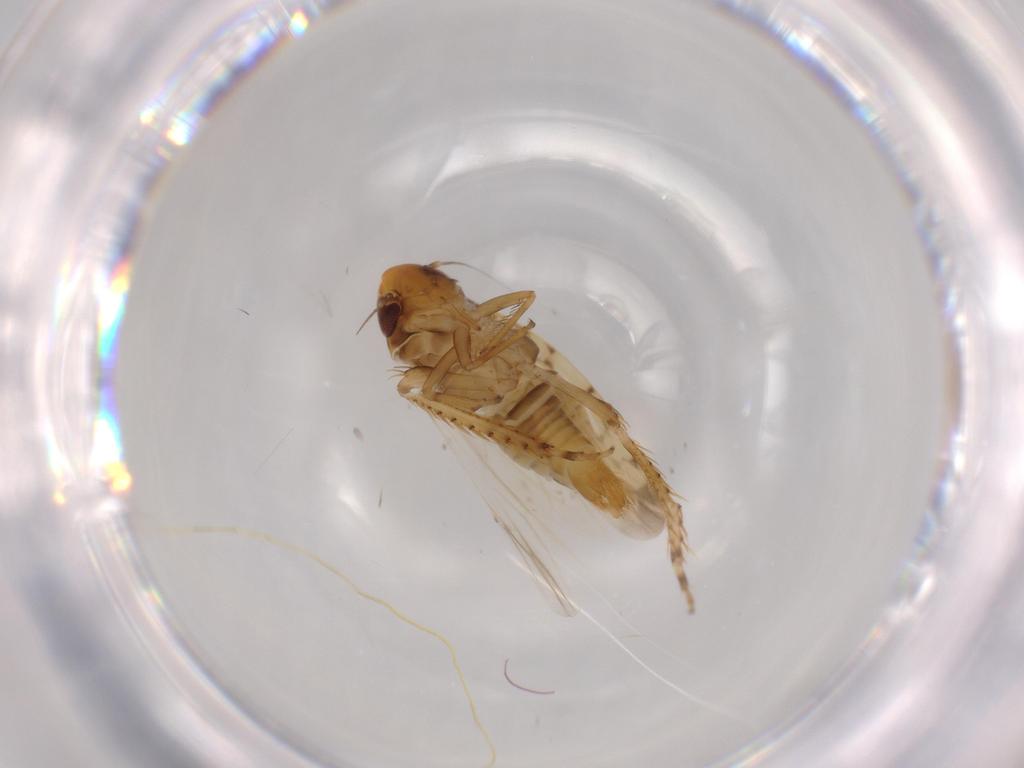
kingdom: Animalia
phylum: Arthropoda
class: Insecta
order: Hemiptera
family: Cicadellidae
